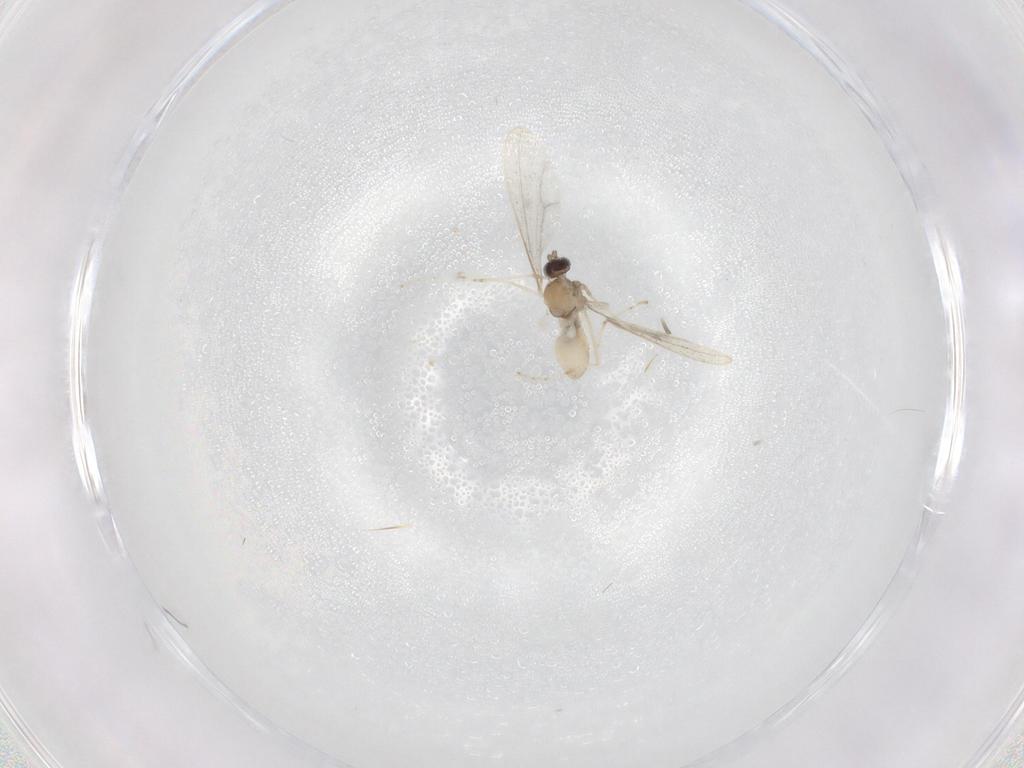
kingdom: Animalia
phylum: Arthropoda
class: Insecta
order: Diptera
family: Cecidomyiidae
